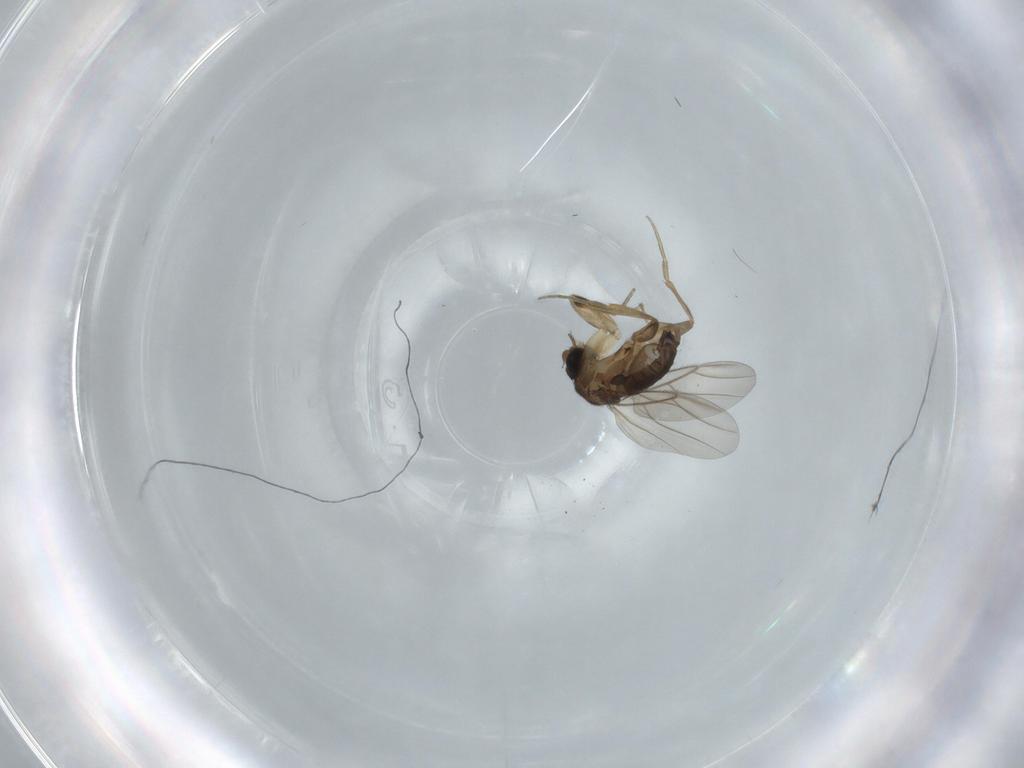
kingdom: Animalia
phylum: Arthropoda
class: Insecta
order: Diptera
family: Phoridae
